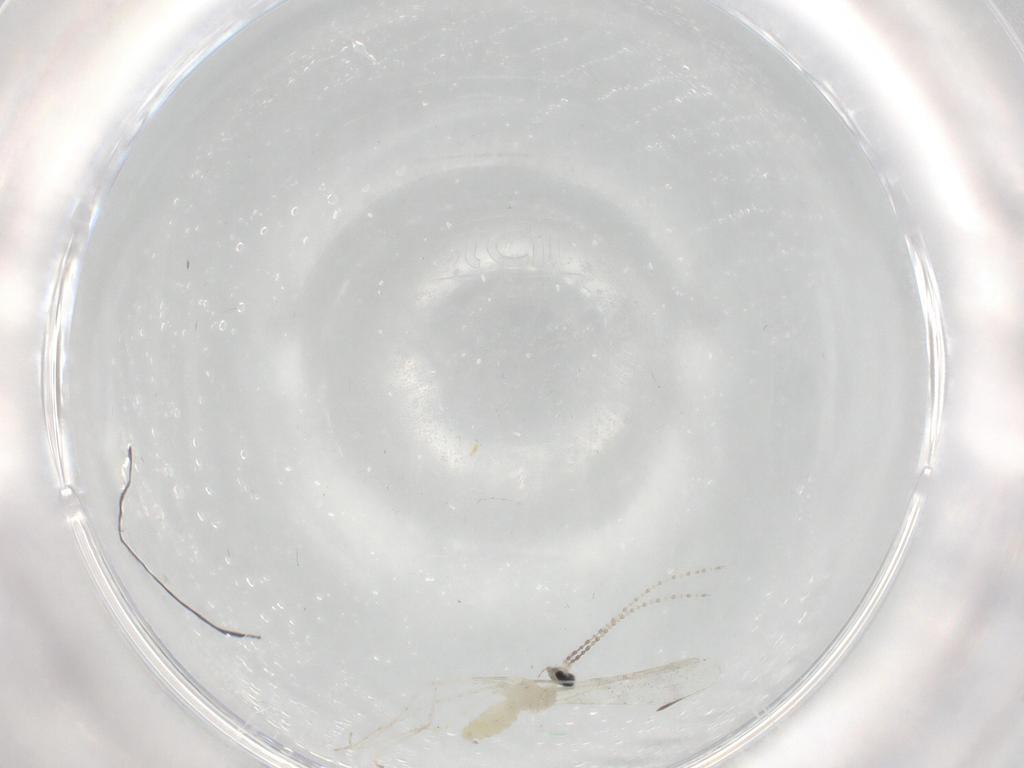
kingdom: Animalia
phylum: Arthropoda
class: Insecta
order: Diptera
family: Cecidomyiidae
